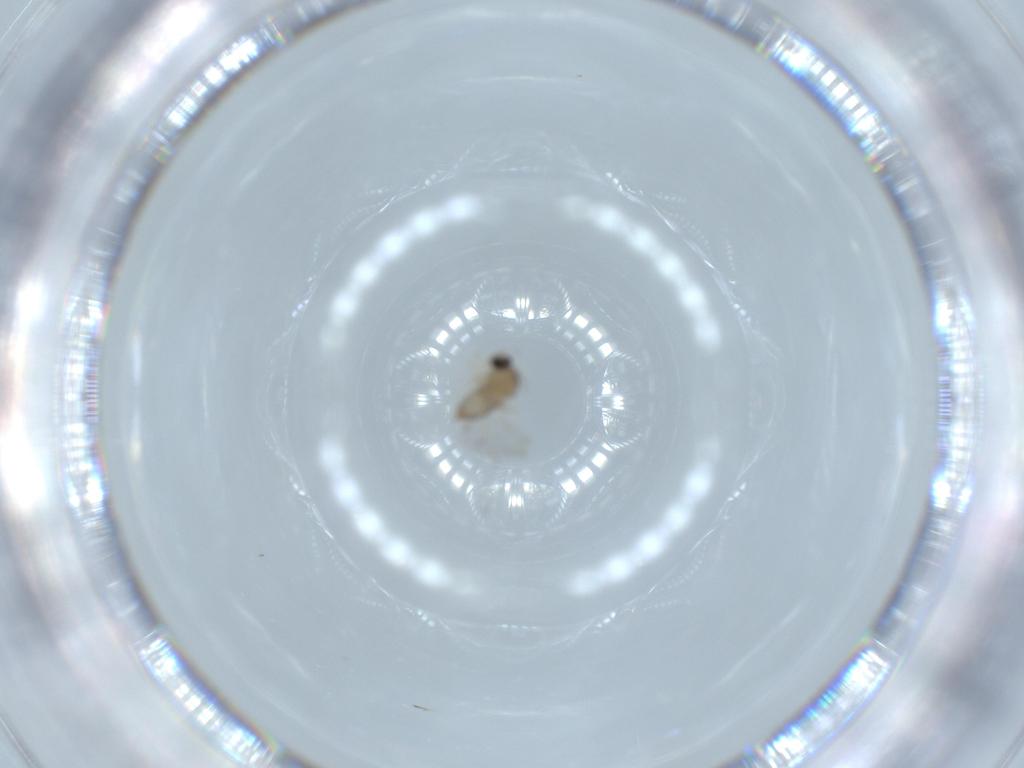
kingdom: Animalia
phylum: Arthropoda
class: Insecta
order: Diptera
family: Cecidomyiidae
